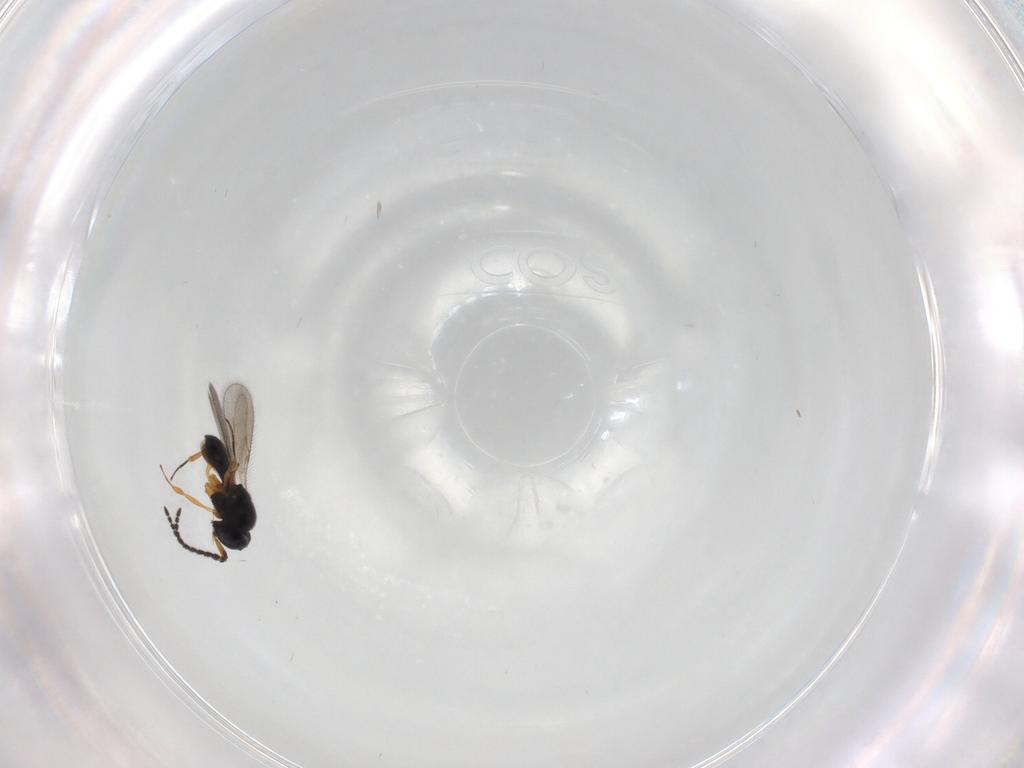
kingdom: Animalia
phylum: Arthropoda
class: Insecta
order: Hymenoptera
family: Scelionidae
